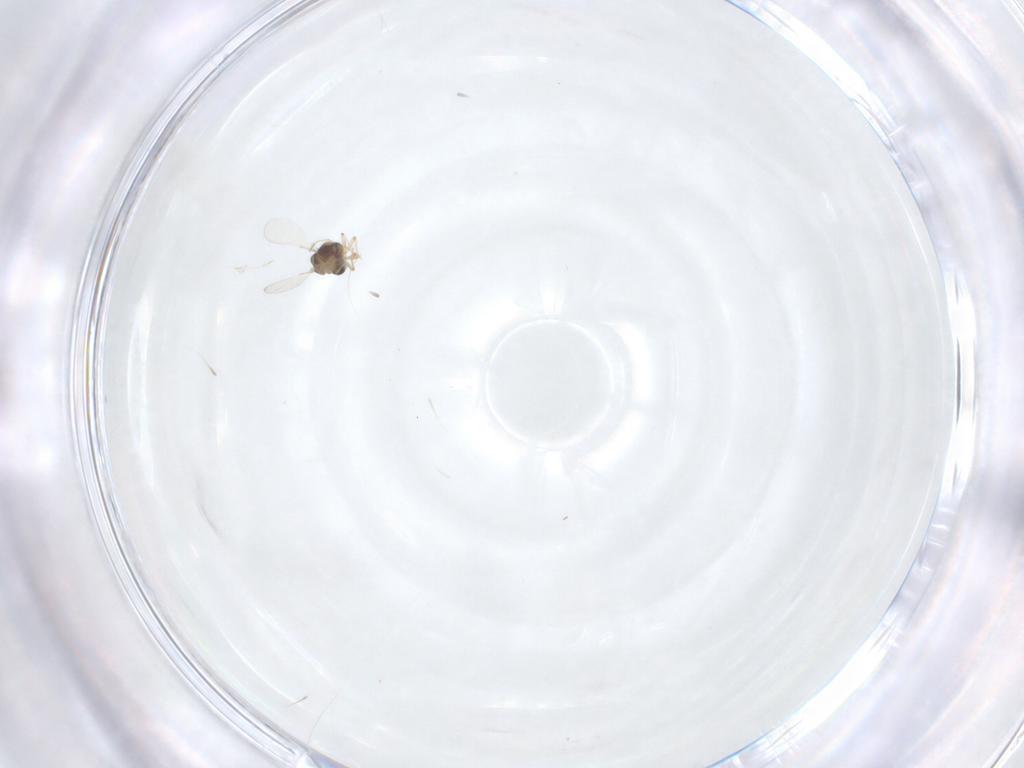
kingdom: Animalia
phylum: Arthropoda
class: Insecta
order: Diptera
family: Chironomidae
